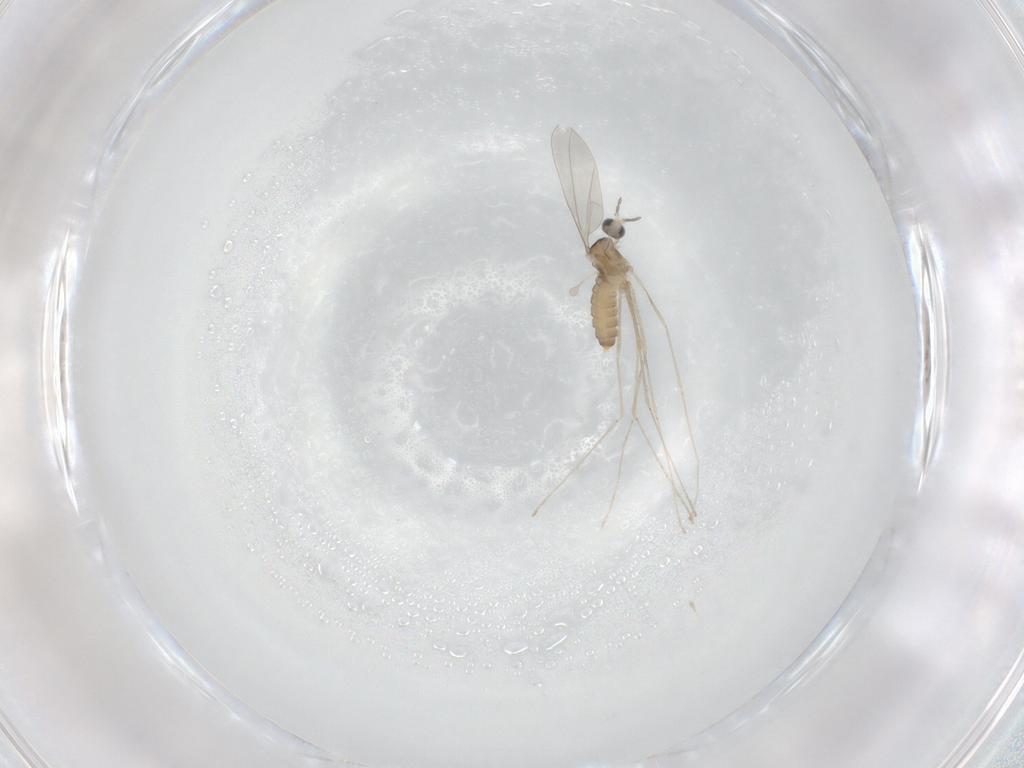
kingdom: Animalia
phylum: Arthropoda
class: Insecta
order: Diptera
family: Cecidomyiidae
